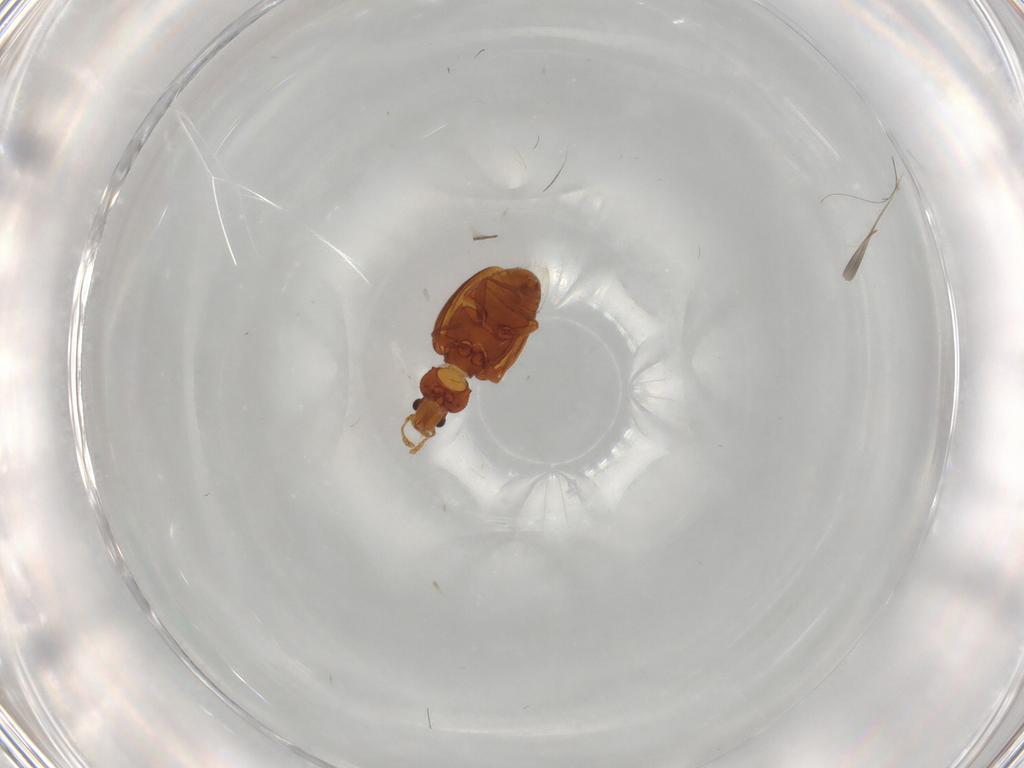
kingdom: Animalia
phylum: Arthropoda
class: Insecta
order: Coleoptera
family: Latridiidae
